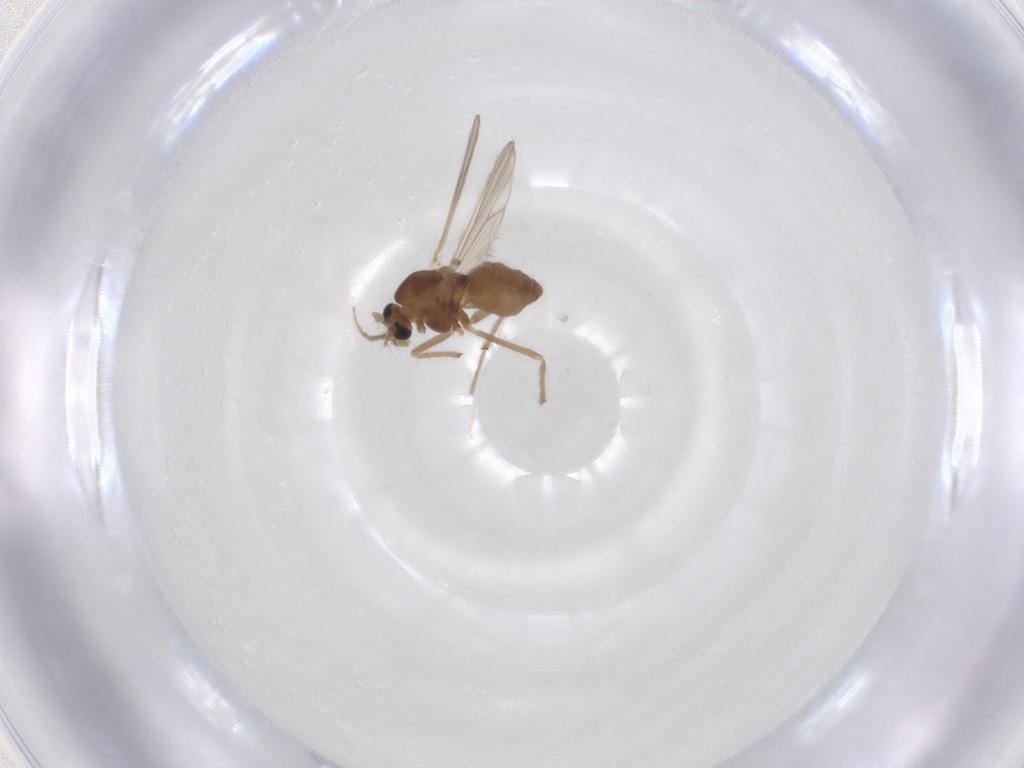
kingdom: Animalia
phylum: Arthropoda
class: Insecta
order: Diptera
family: Chironomidae
